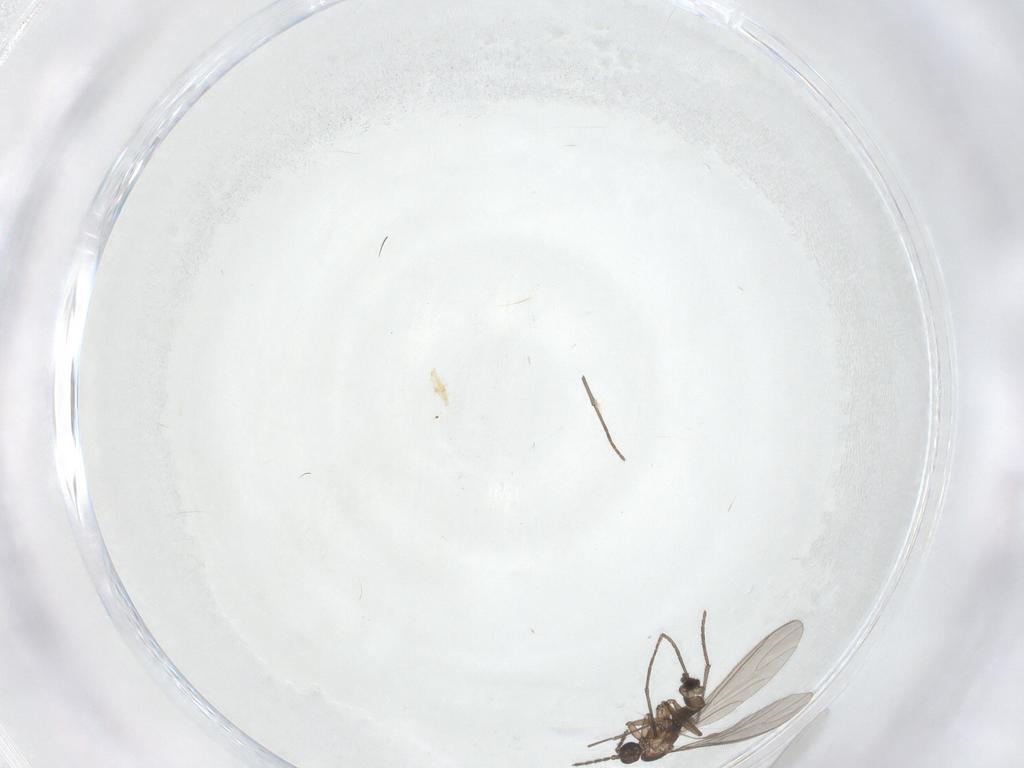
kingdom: Animalia
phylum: Arthropoda
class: Insecta
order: Diptera
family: Sciaridae
